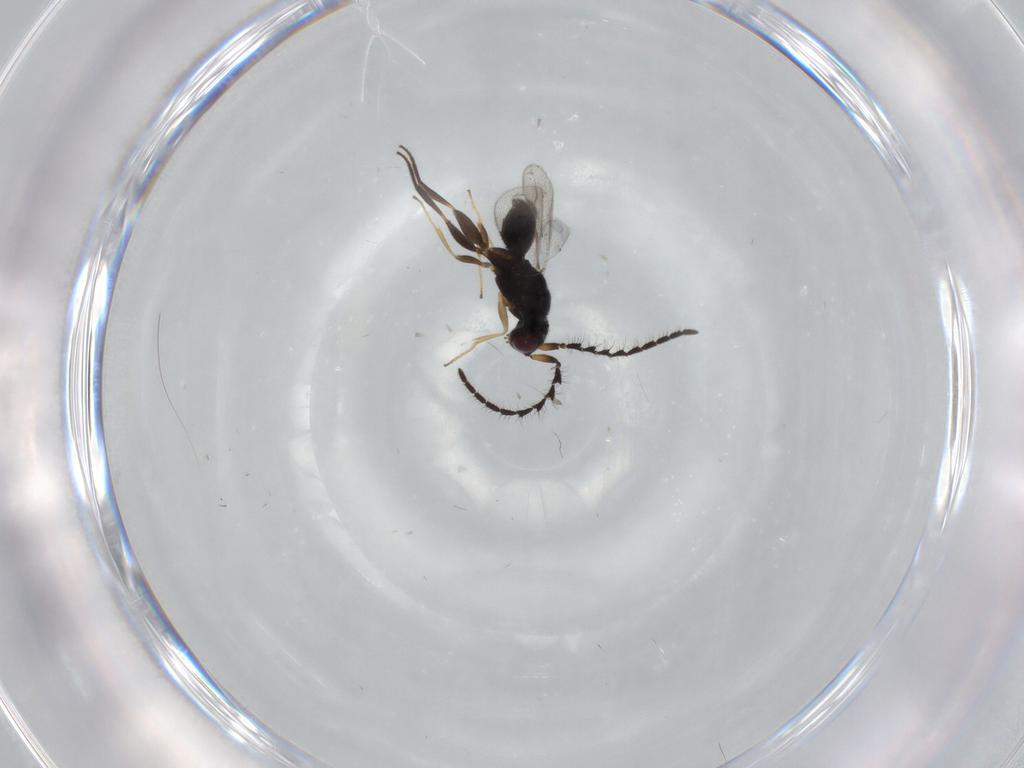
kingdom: Animalia
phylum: Arthropoda
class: Insecta
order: Hymenoptera
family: Megaspilidae
